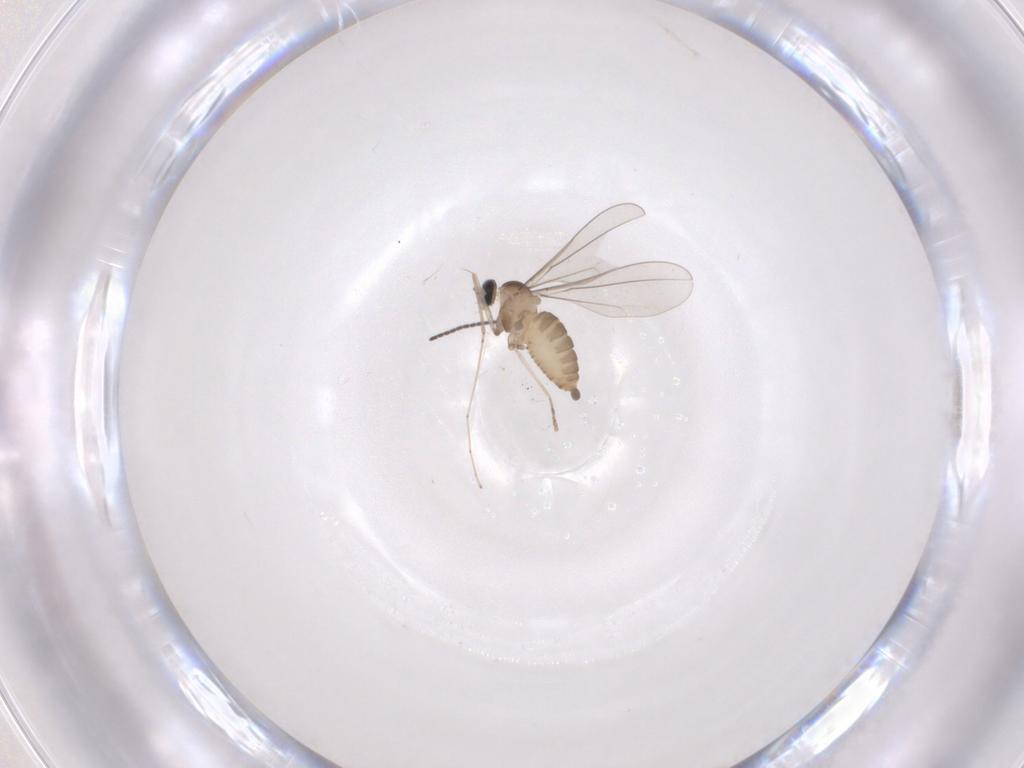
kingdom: Animalia
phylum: Arthropoda
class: Insecta
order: Diptera
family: Cecidomyiidae
